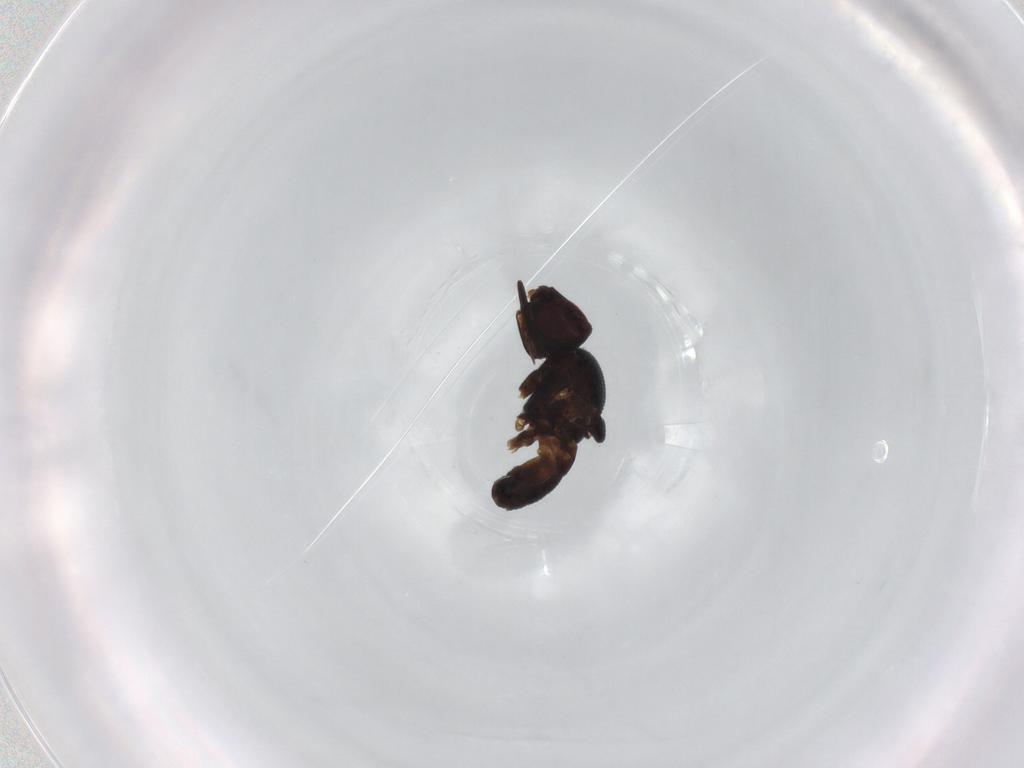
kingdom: Animalia
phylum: Arthropoda
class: Insecta
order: Diptera
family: Chloropidae
